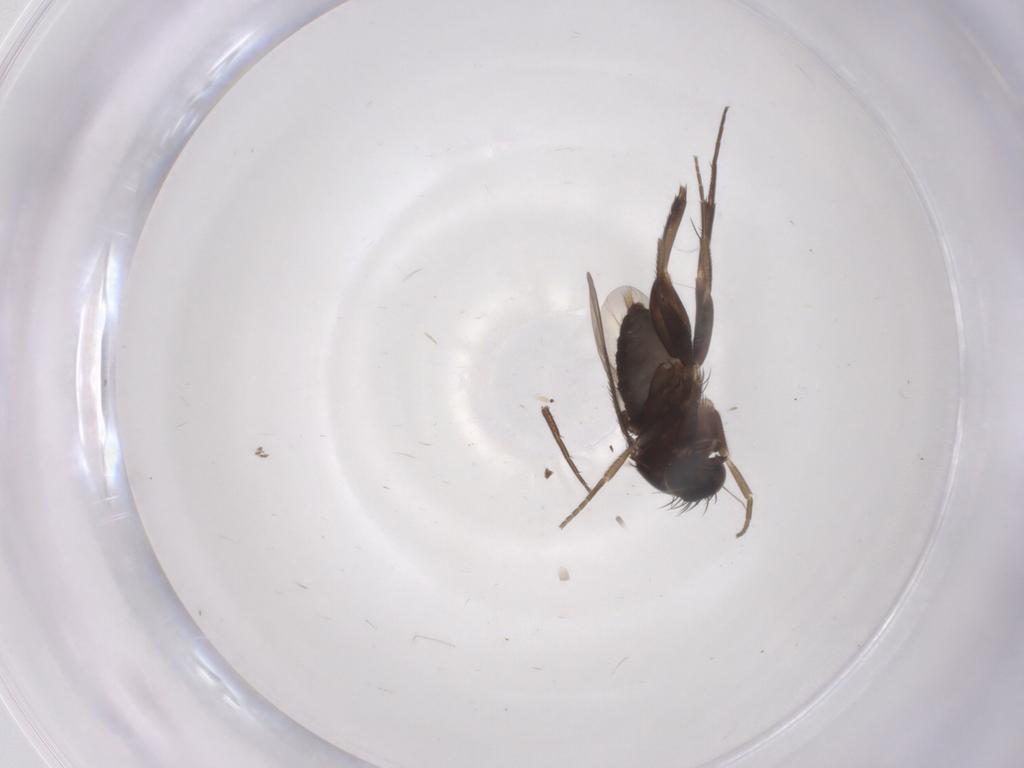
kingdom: Animalia
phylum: Arthropoda
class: Insecta
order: Diptera
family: Phoridae
